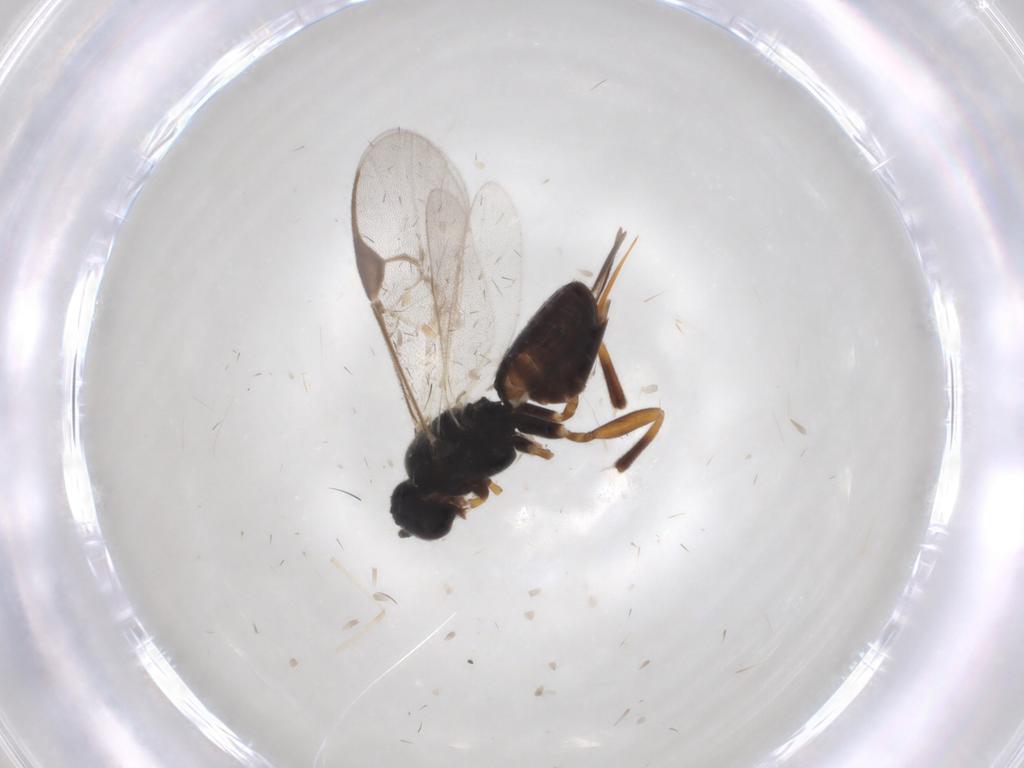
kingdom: Animalia
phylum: Arthropoda
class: Insecta
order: Hymenoptera
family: Braconidae
